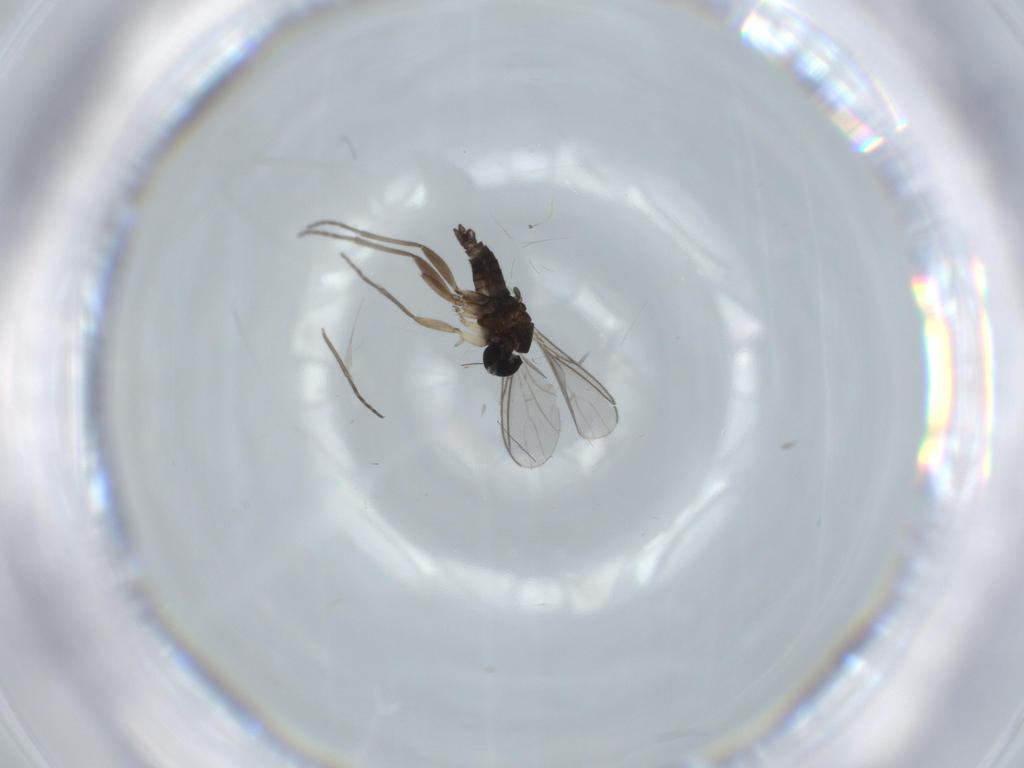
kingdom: Animalia
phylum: Arthropoda
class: Insecta
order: Diptera
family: Sciaridae
